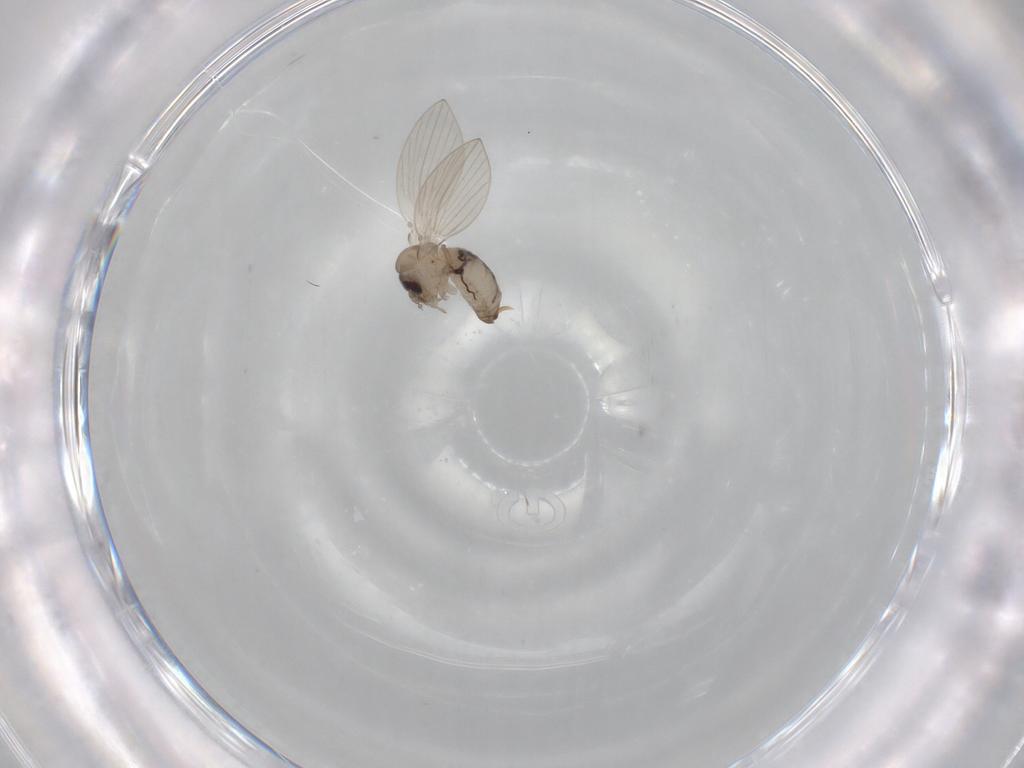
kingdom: Animalia
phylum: Arthropoda
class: Insecta
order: Diptera
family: Psychodidae
